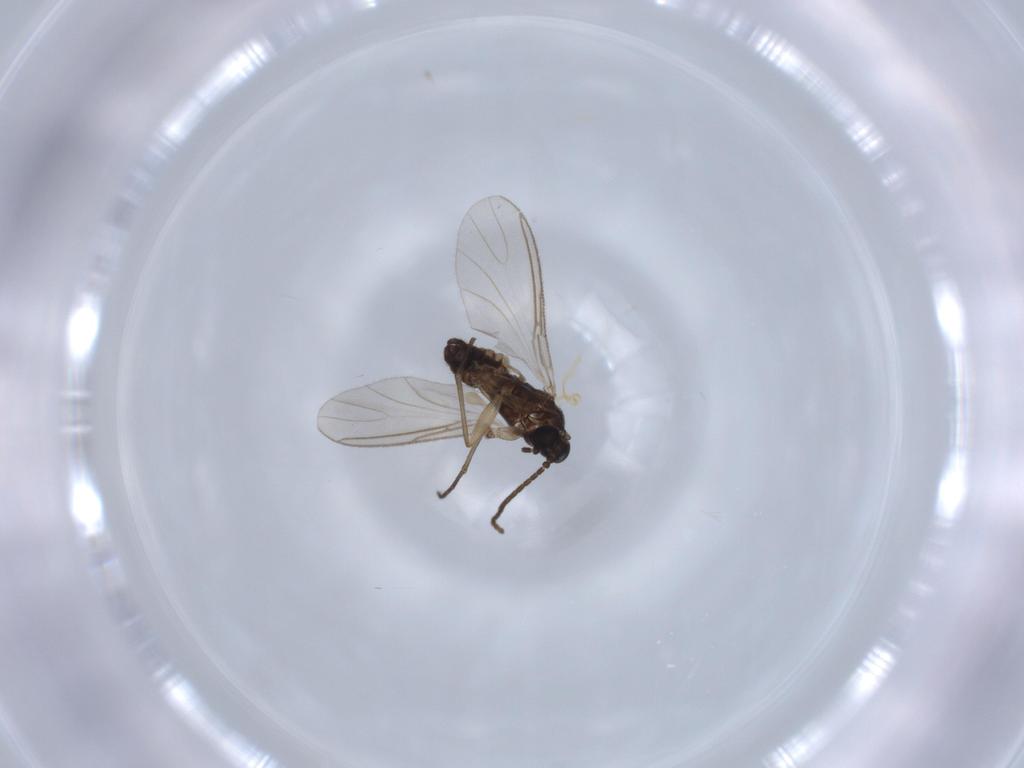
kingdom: Animalia
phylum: Arthropoda
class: Insecta
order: Diptera
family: Sciaridae
